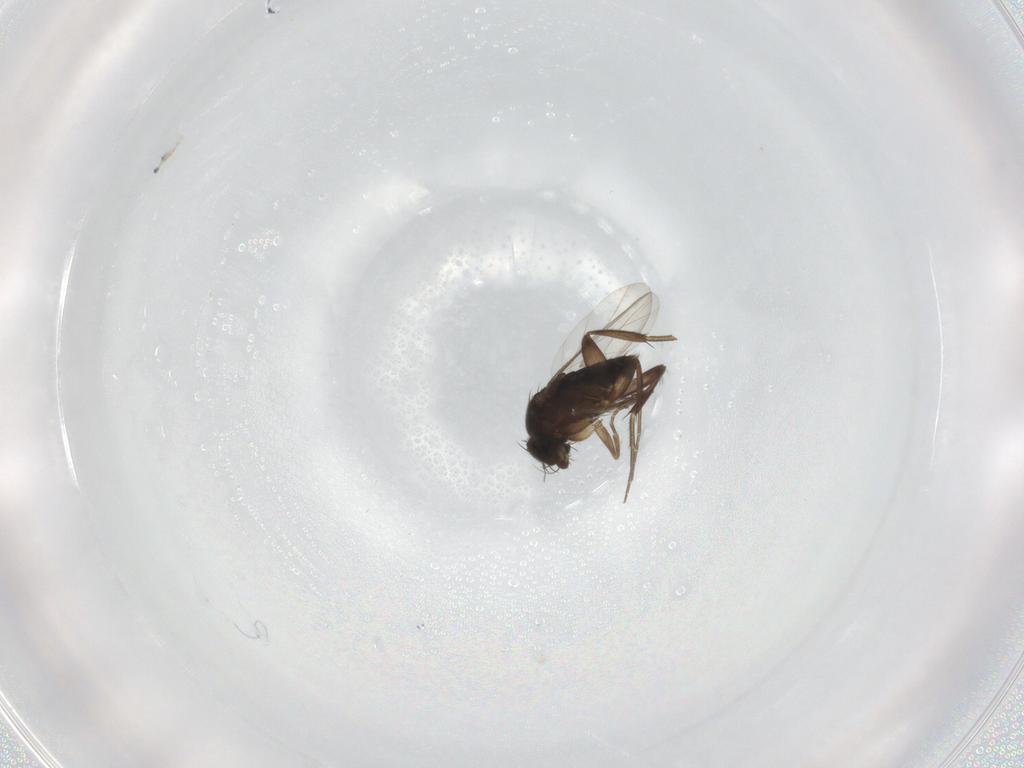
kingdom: Animalia
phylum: Arthropoda
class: Insecta
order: Diptera
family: Phoridae
